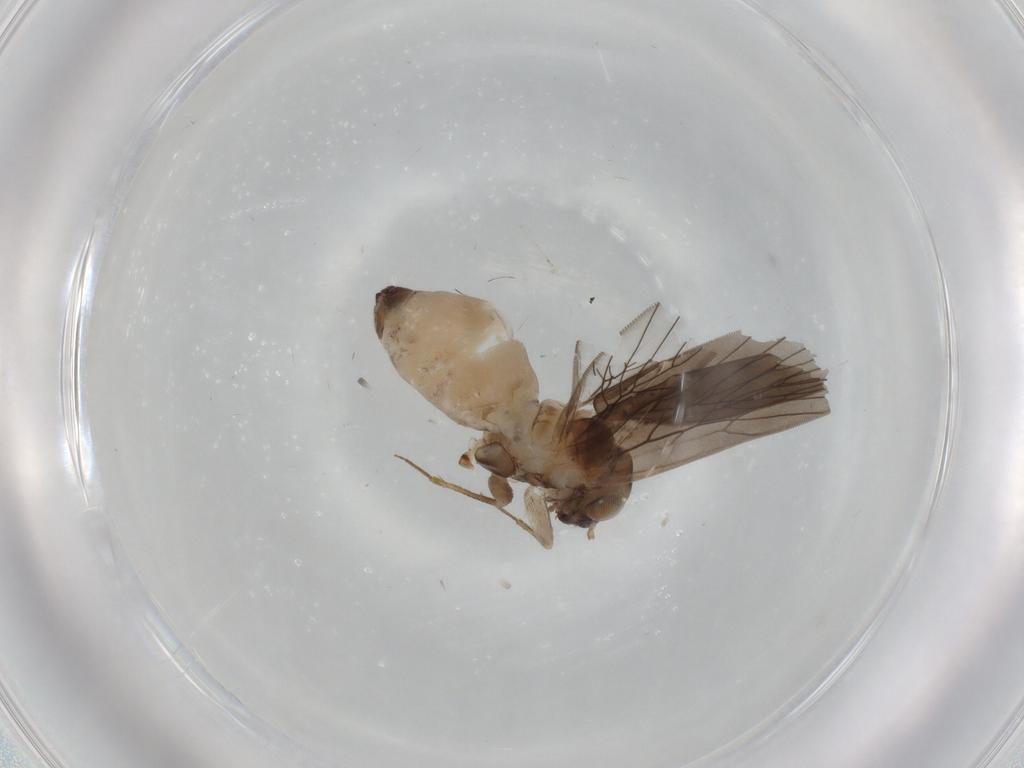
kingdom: Animalia
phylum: Arthropoda
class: Insecta
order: Psocodea
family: Lepidopsocidae
